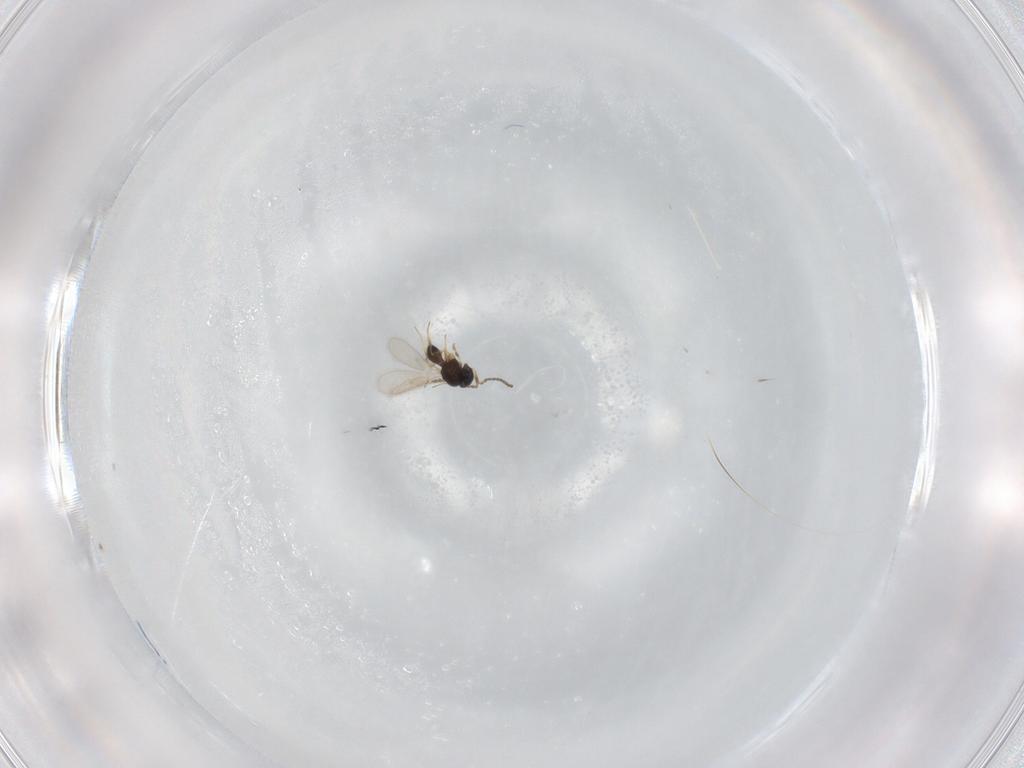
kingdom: Animalia
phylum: Arthropoda
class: Insecta
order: Hymenoptera
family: Scelionidae
